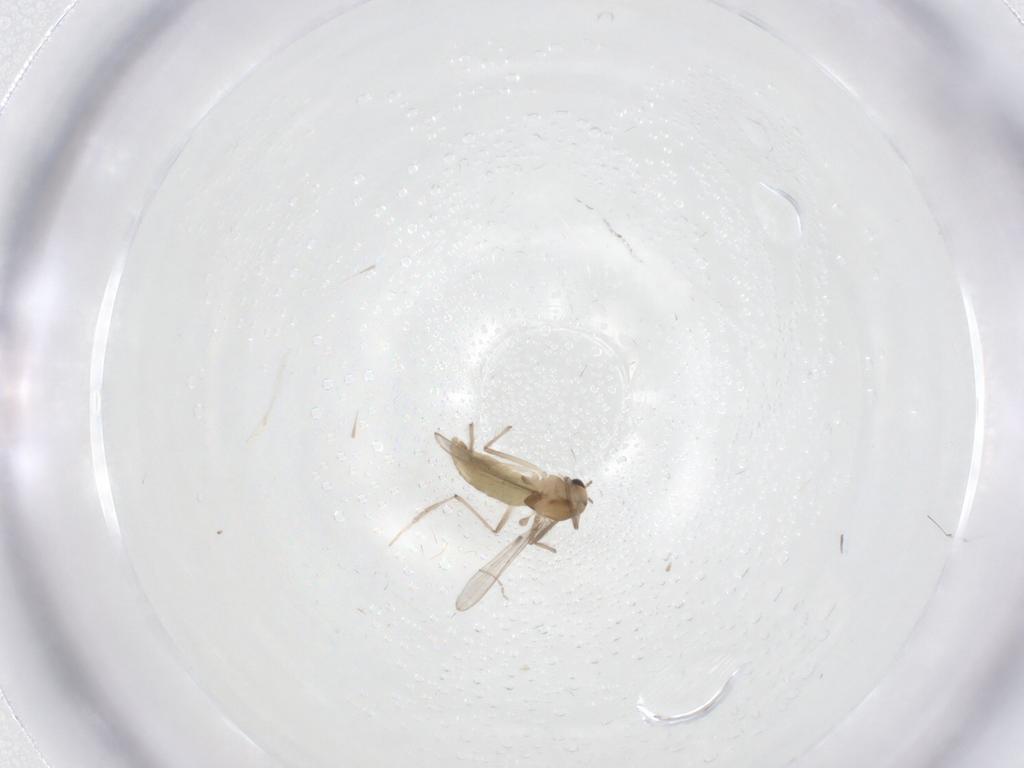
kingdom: Animalia
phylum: Arthropoda
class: Insecta
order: Diptera
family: Chironomidae
